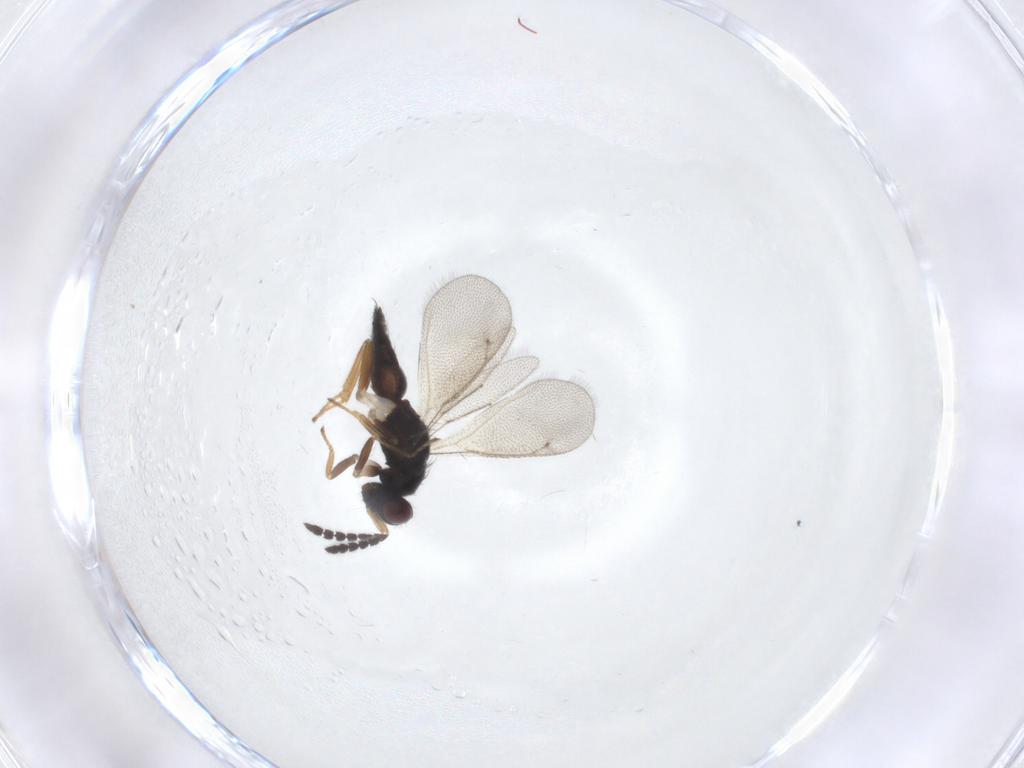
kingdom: Animalia
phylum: Arthropoda
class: Insecta
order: Hymenoptera
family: Eulophidae
